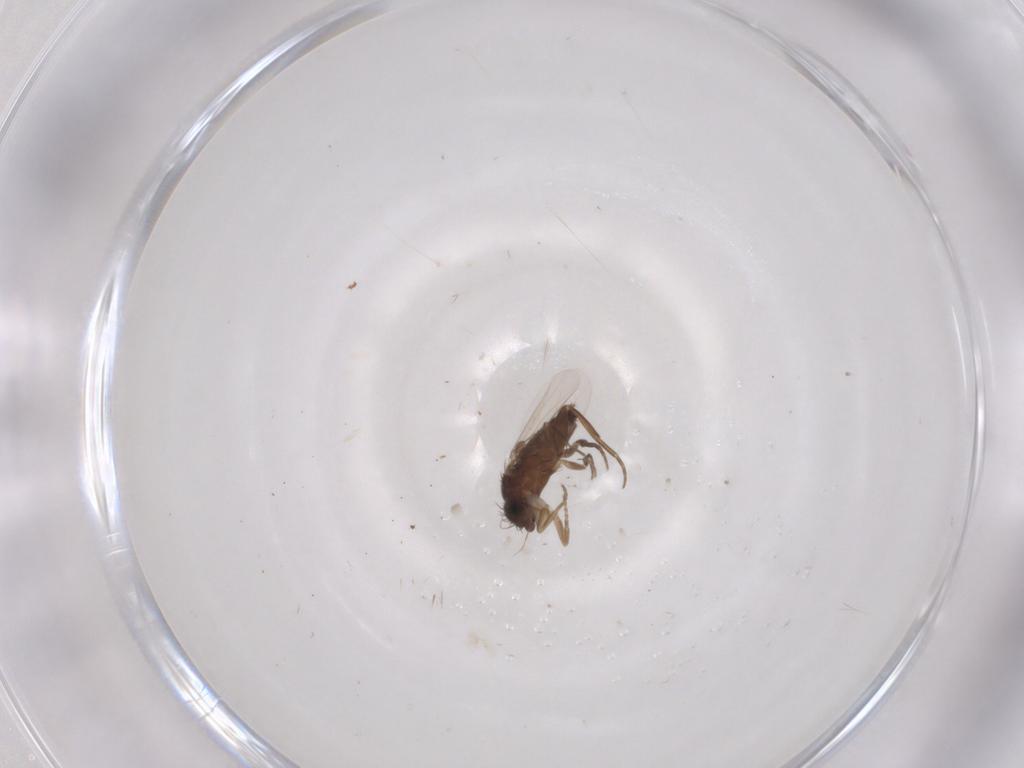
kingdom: Animalia
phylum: Arthropoda
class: Insecta
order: Diptera
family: Phoridae
